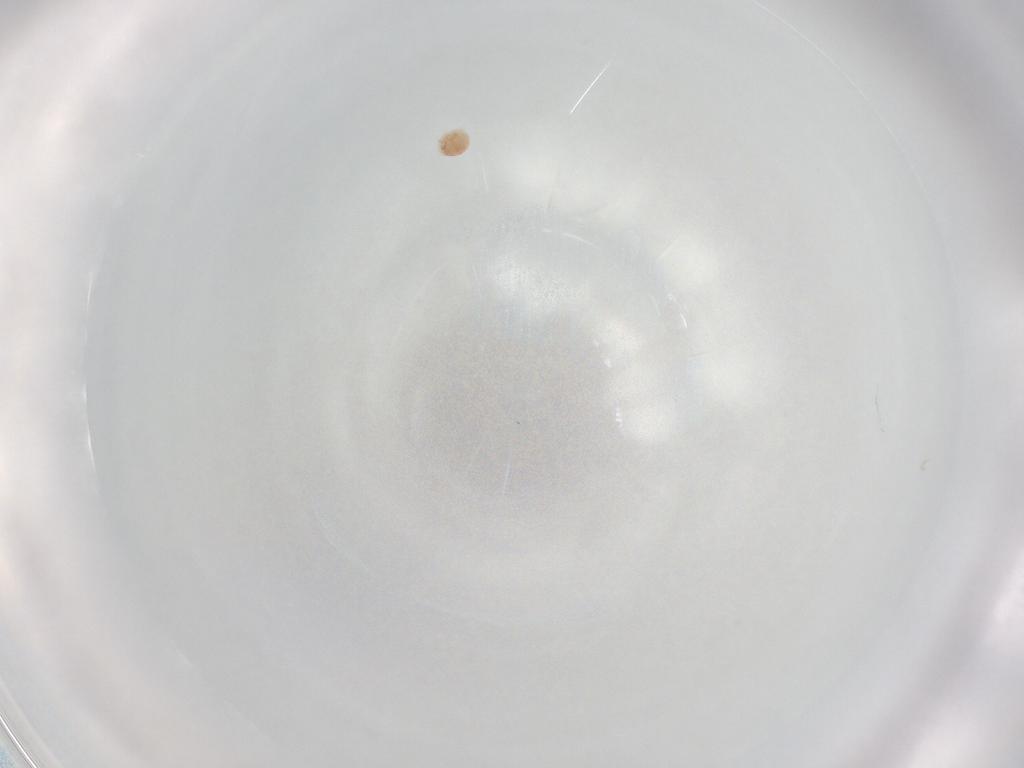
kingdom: Animalia
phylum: Arthropoda
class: Arachnida
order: Trombidiformes
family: Scutacaridae
